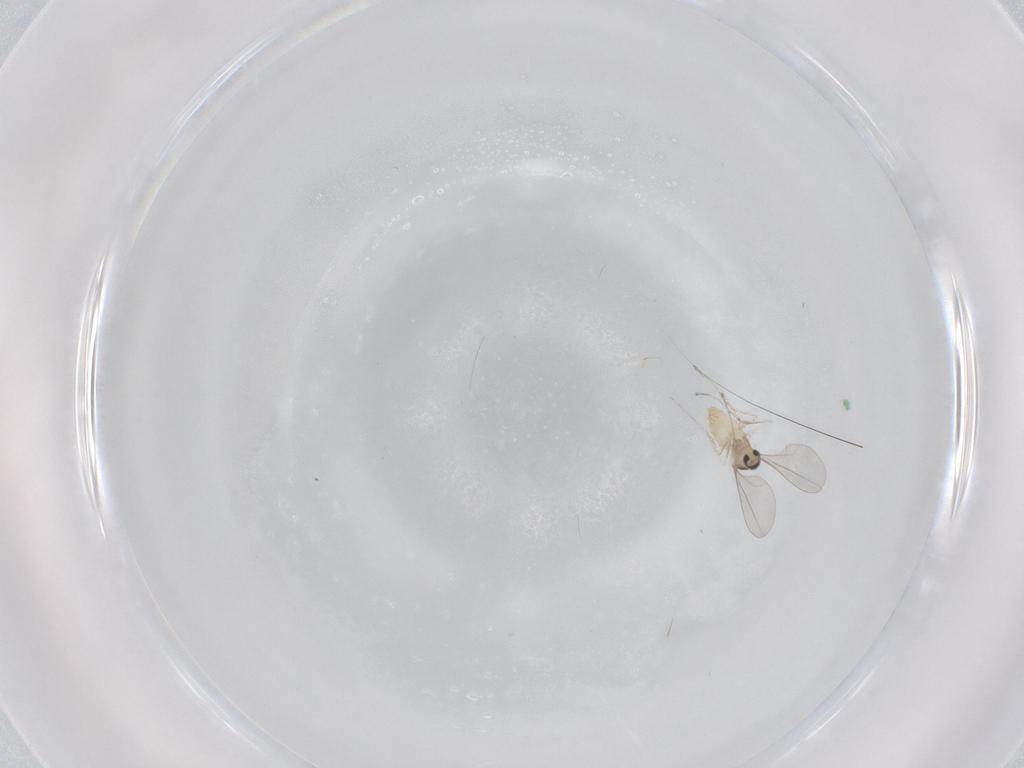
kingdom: Animalia
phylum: Arthropoda
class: Insecta
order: Diptera
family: Cecidomyiidae
